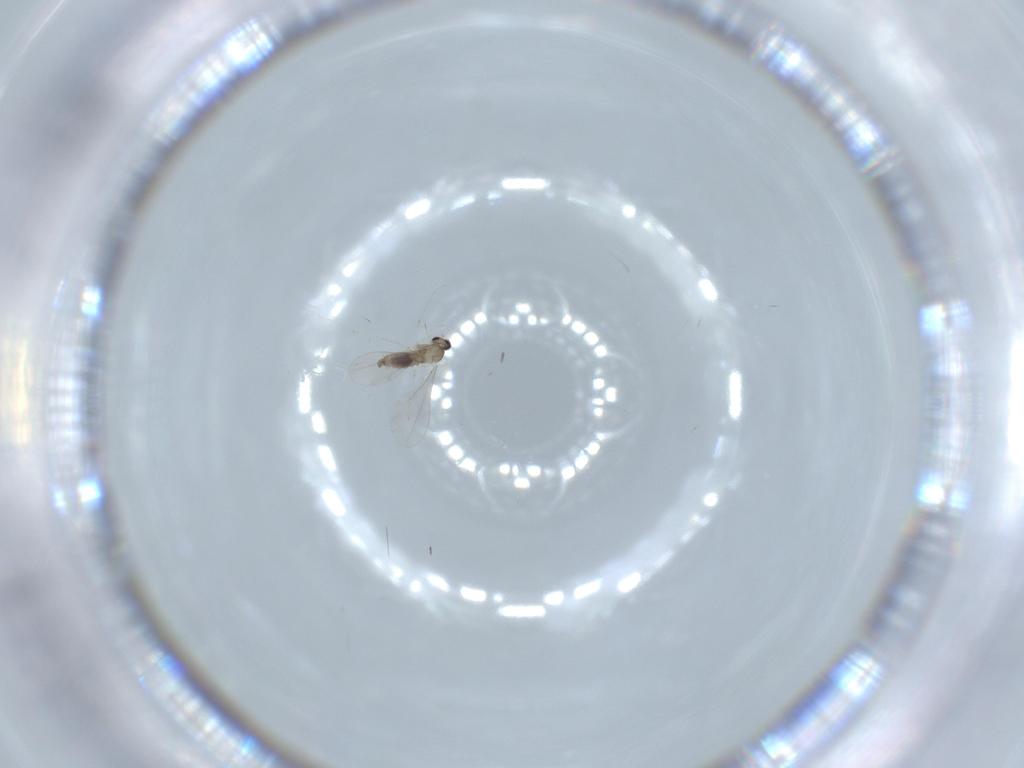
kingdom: Animalia
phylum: Arthropoda
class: Insecta
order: Diptera
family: Cecidomyiidae
